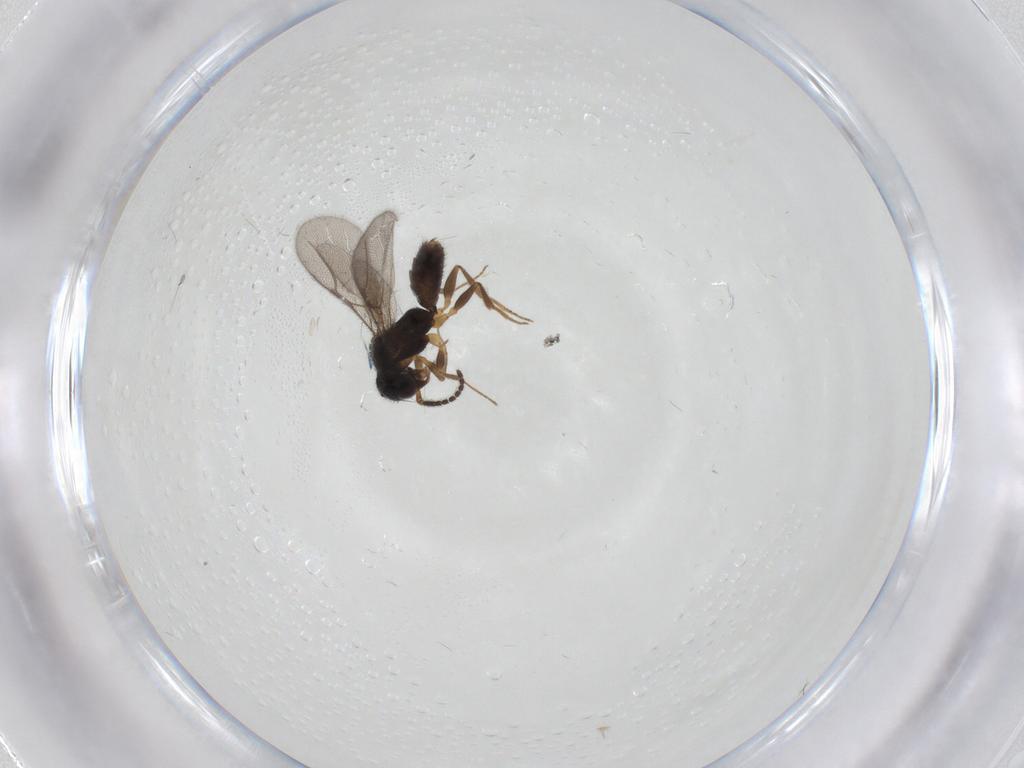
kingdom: Animalia
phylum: Arthropoda
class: Insecta
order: Hymenoptera
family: Bethylidae
